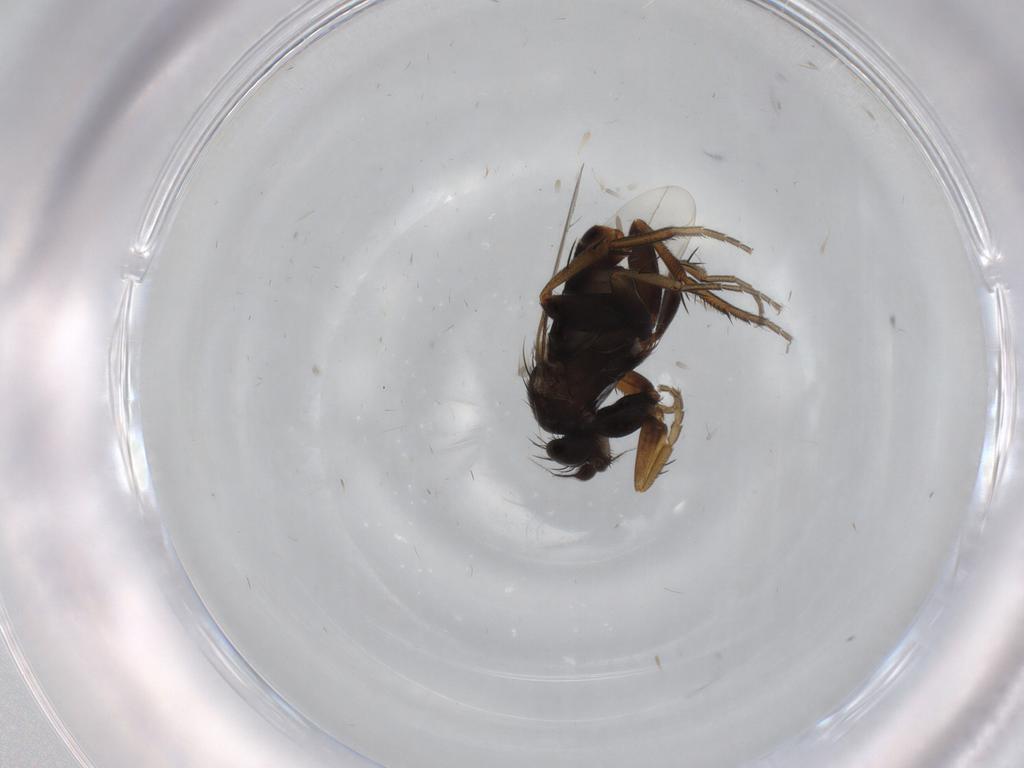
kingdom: Animalia
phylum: Arthropoda
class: Insecta
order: Diptera
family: Phoridae
